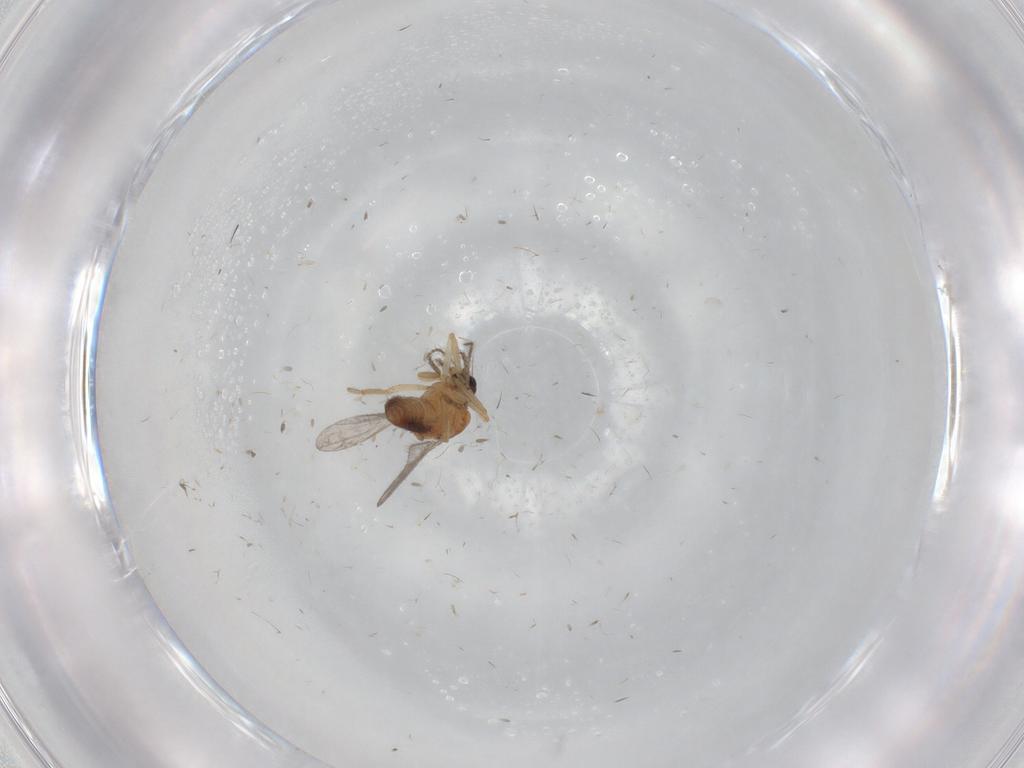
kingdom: Animalia
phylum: Arthropoda
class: Insecta
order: Diptera
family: Ceratopogonidae
